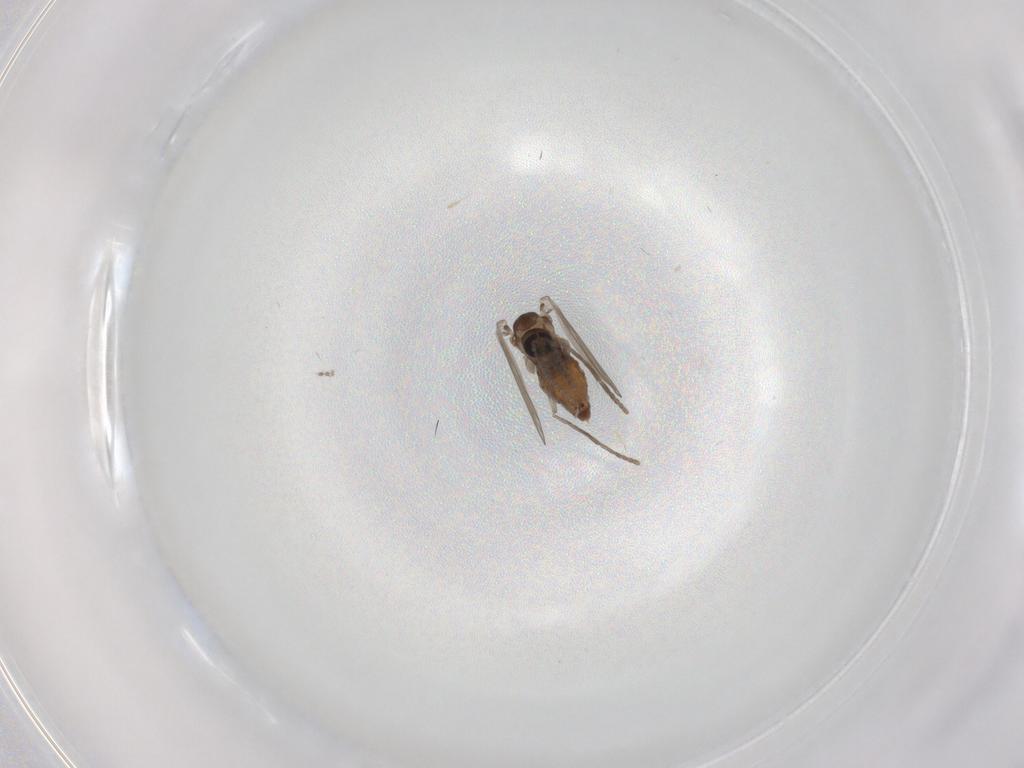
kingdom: Animalia
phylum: Arthropoda
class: Insecta
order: Diptera
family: Psychodidae
